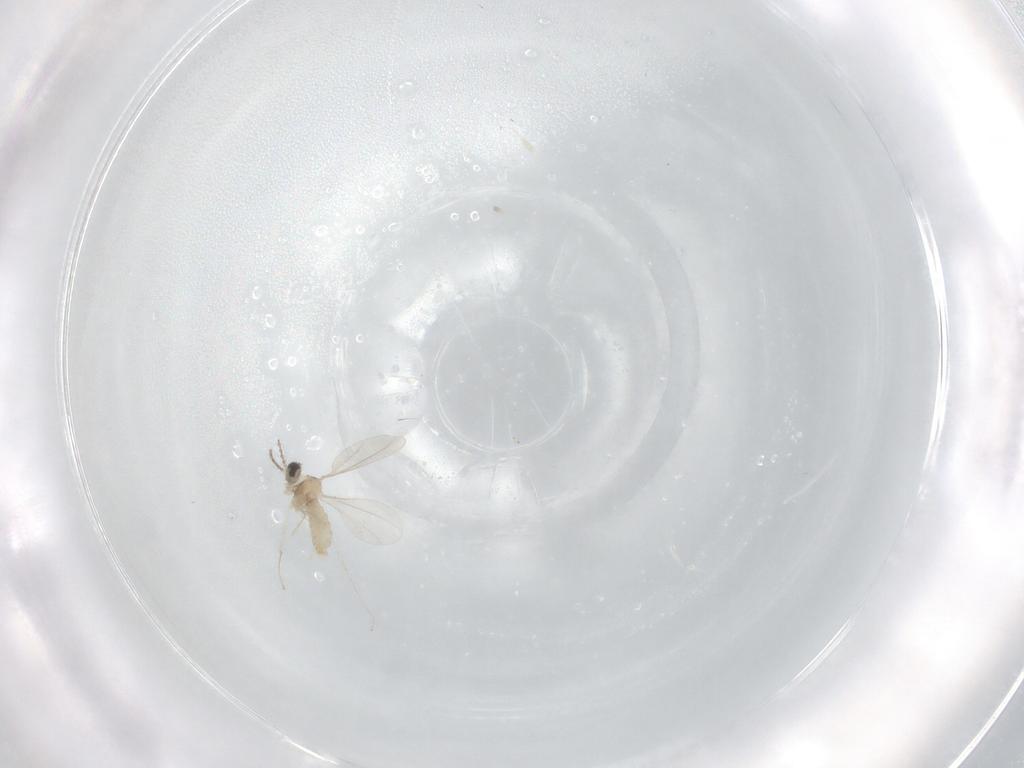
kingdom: Animalia
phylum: Arthropoda
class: Insecta
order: Diptera
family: Cecidomyiidae
